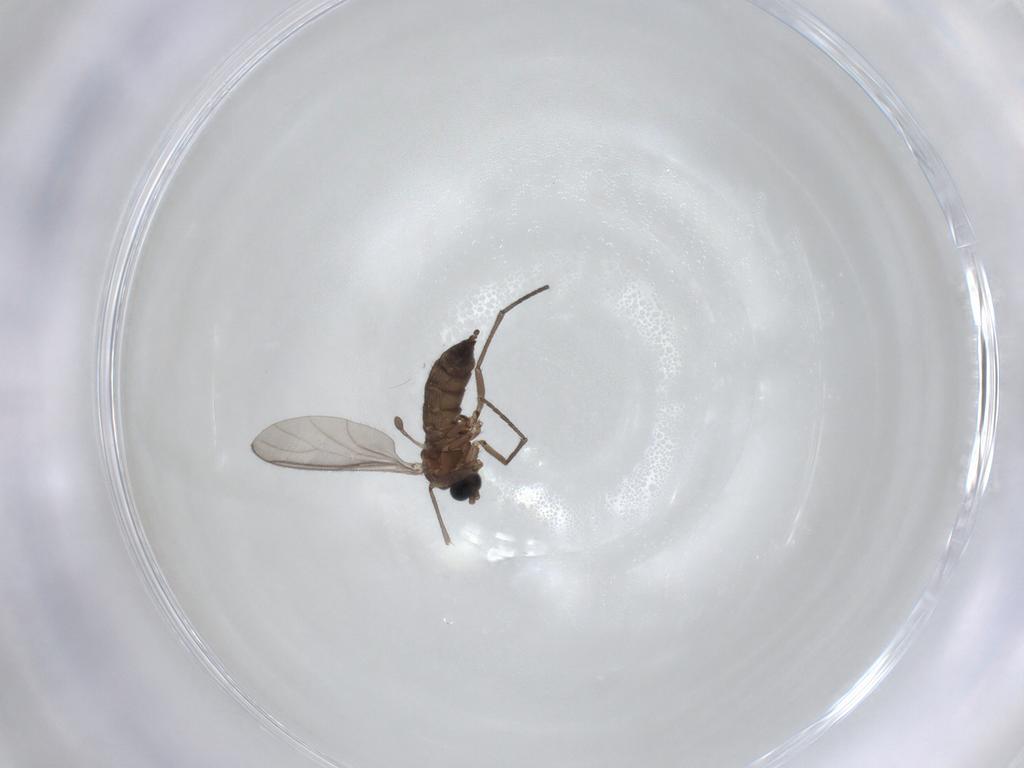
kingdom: Animalia
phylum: Arthropoda
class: Insecta
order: Diptera
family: Sciaridae
